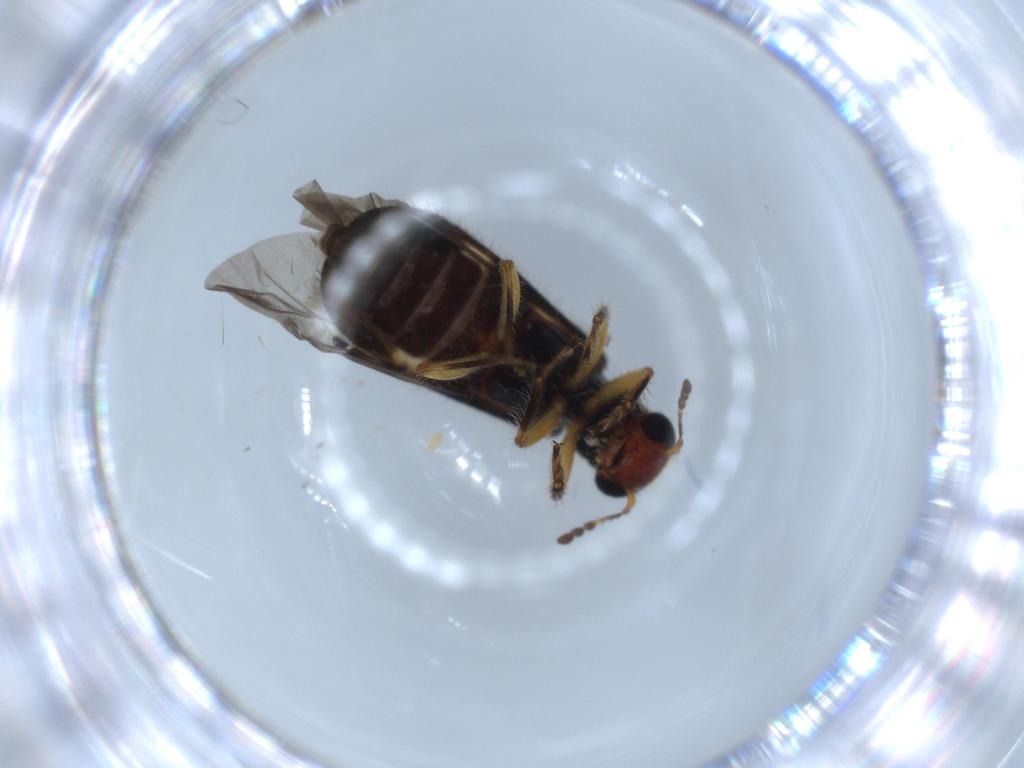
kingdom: Animalia
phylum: Arthropoda
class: Insecta
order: Coleoptera
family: Cleridae
